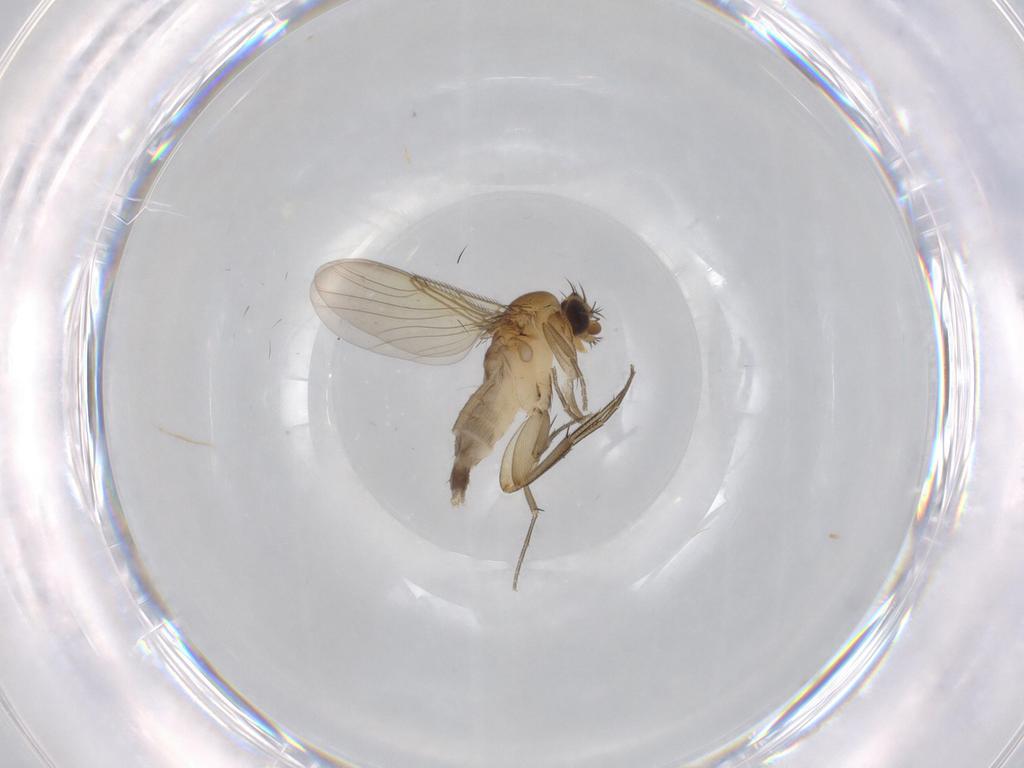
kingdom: Animalia
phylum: Arthropoda
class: Insecta
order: Diptera
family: Phoridae
